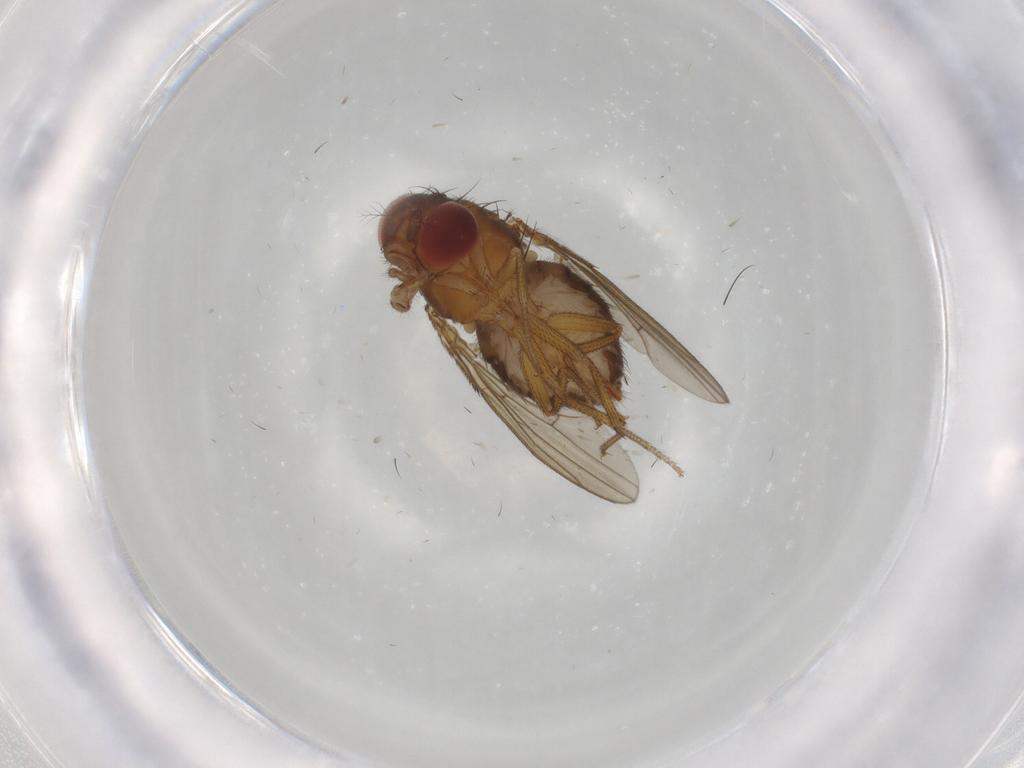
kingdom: Animalia
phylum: Arthropoda
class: Insecta
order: Diptera
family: Drosophilidae
